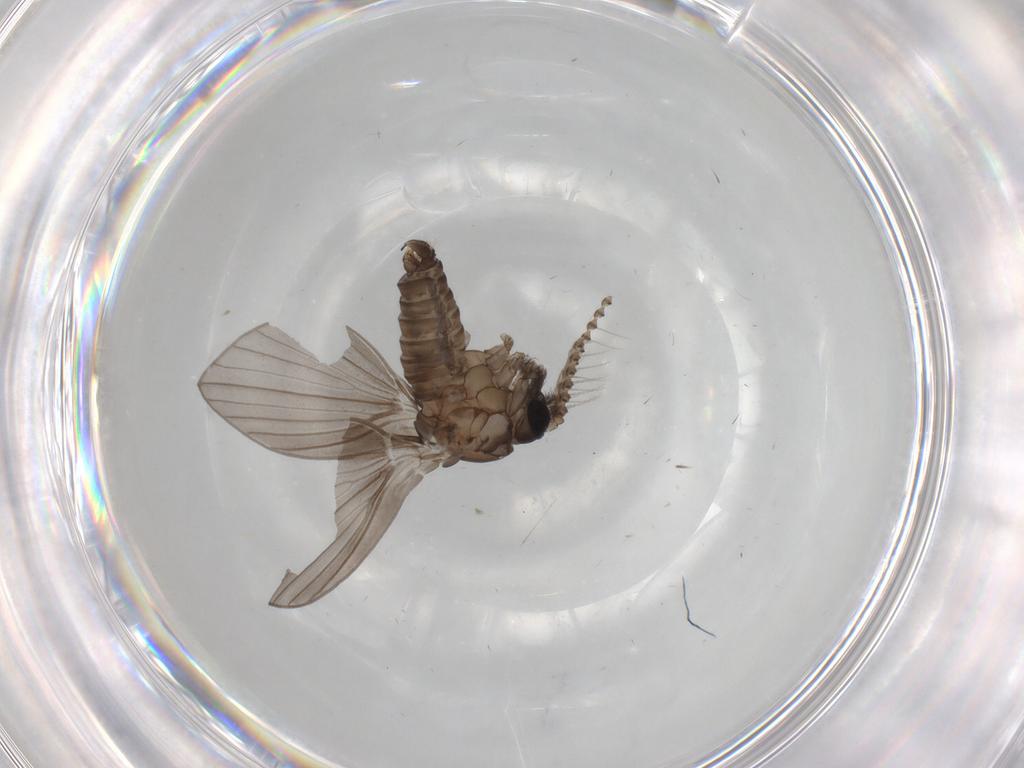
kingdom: Animalia
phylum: Arthropoda
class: Insecta
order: Diptera
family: Psychodidae
